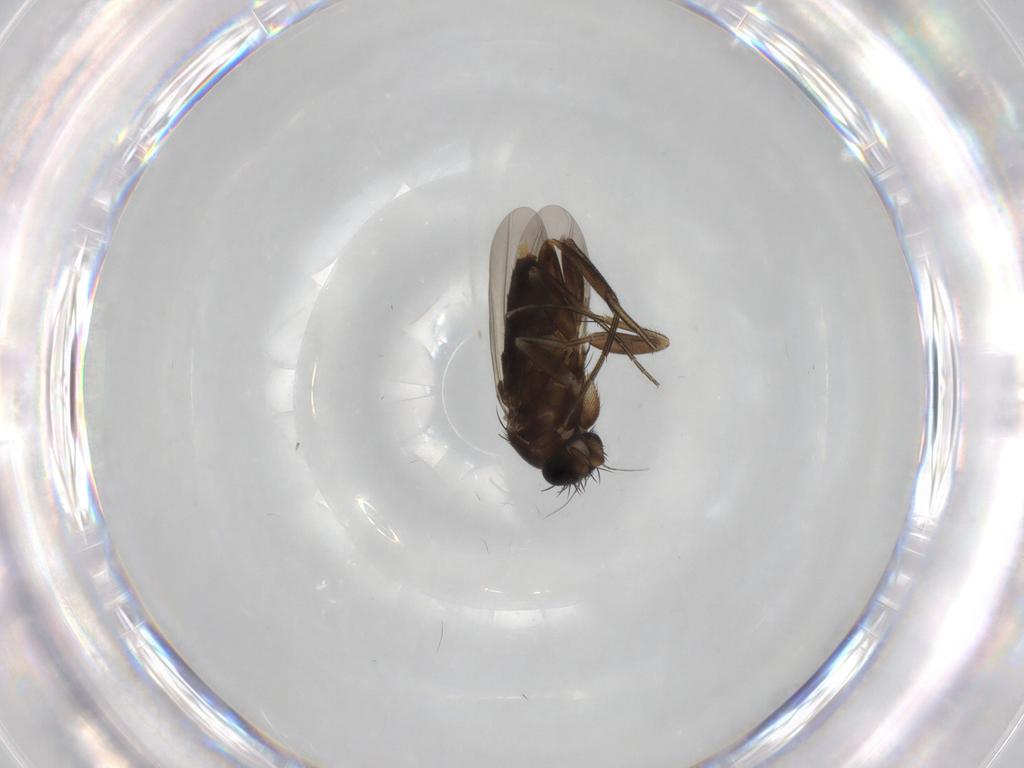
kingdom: Animalia
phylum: Arthropoda
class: Insecta
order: Diptera
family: Phoridae
